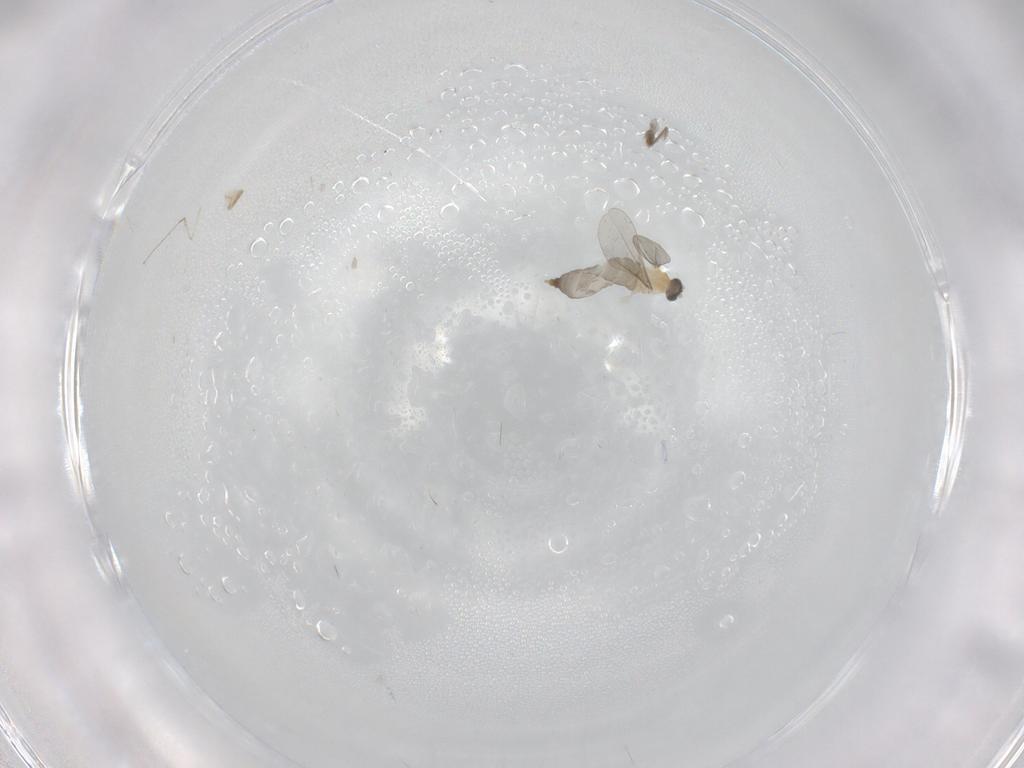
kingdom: Animalia
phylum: Arthropoda
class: Insecta
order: Diptera
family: Cecidomyiidae
